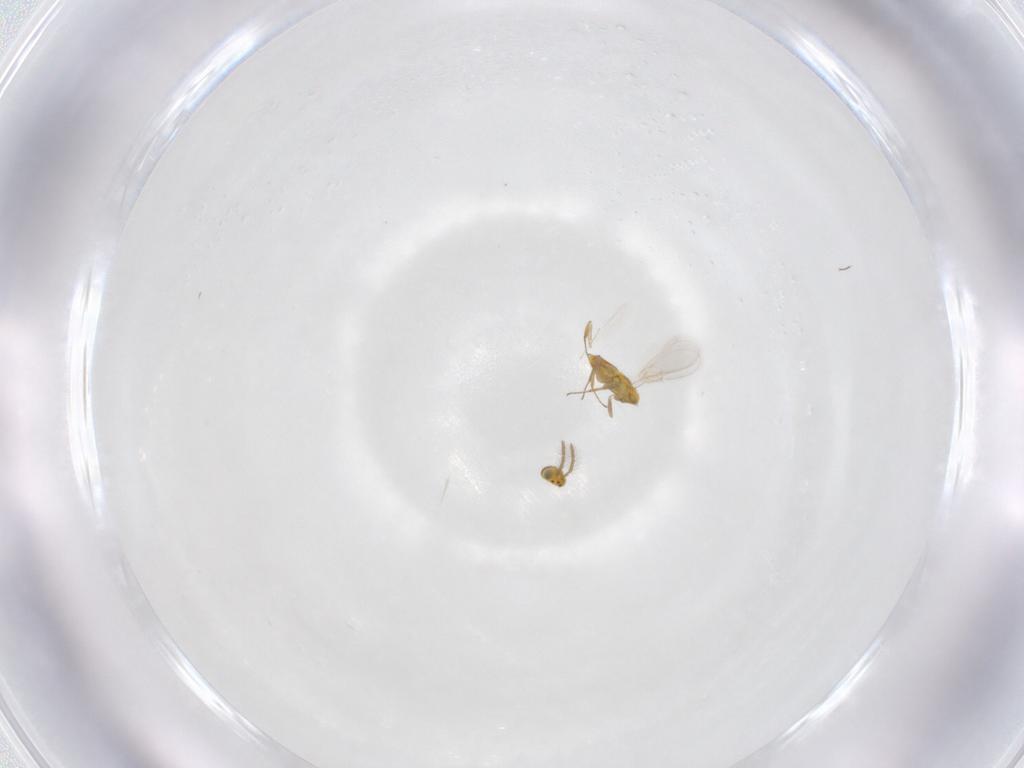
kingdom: Animalia
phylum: Arthropoda
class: Insecta
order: Hymenoptera
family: Aphelinidae
